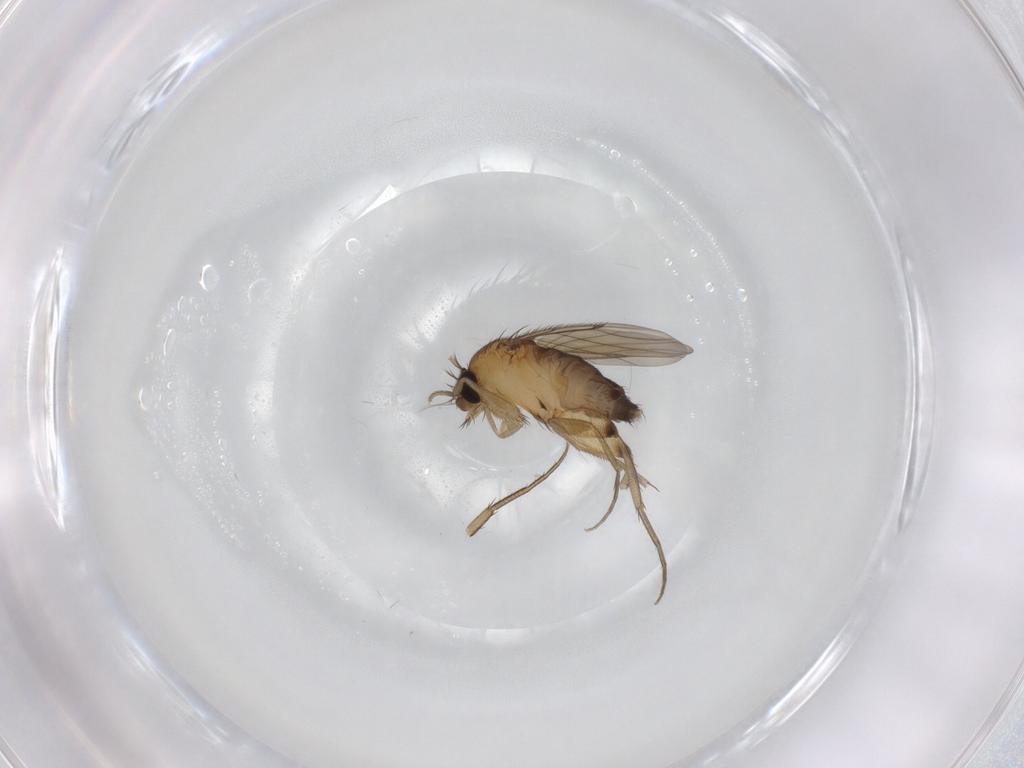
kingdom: Animalia
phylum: Arthropoda
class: Insecta
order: Diptera
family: Phoridae
